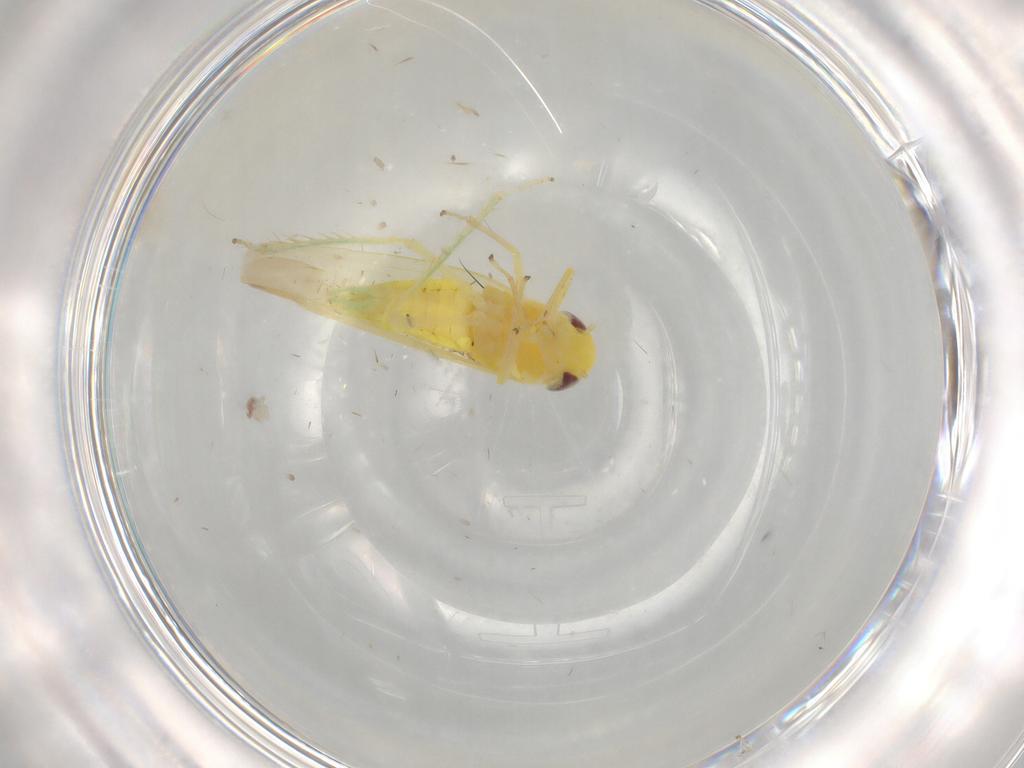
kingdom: Animalia
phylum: Arthropoda
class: Insecta
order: Hemiptera
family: Cicadellidae
